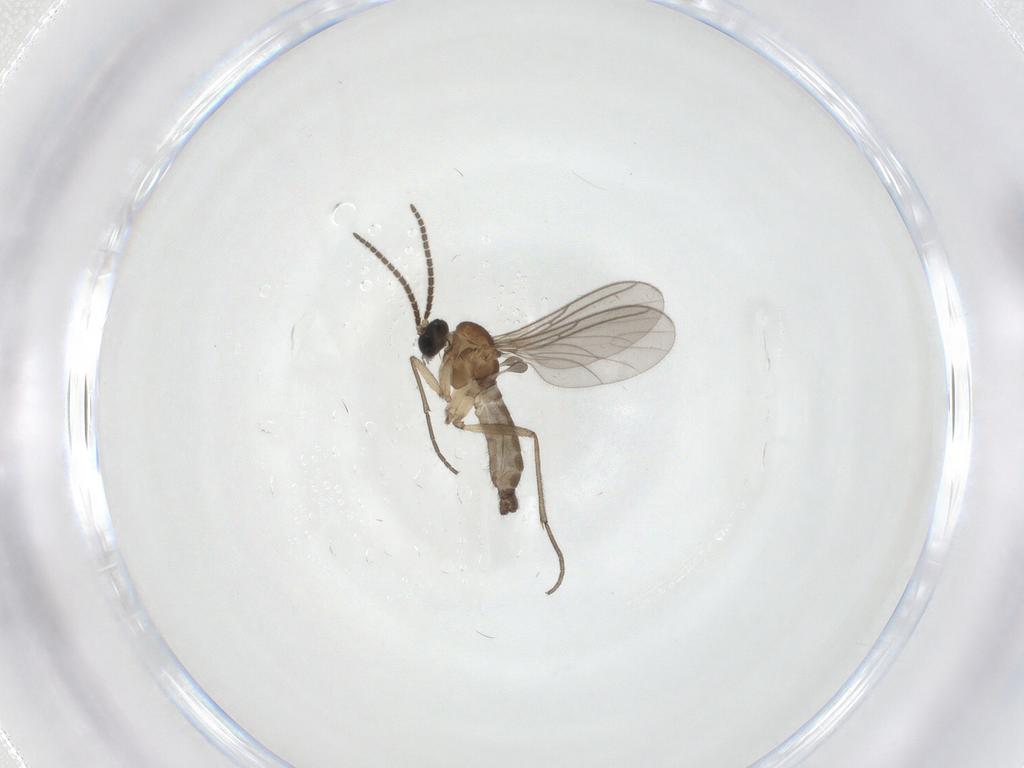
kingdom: Animalia
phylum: Arthropoda
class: Insecta
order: Diptera
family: Sciaridae
